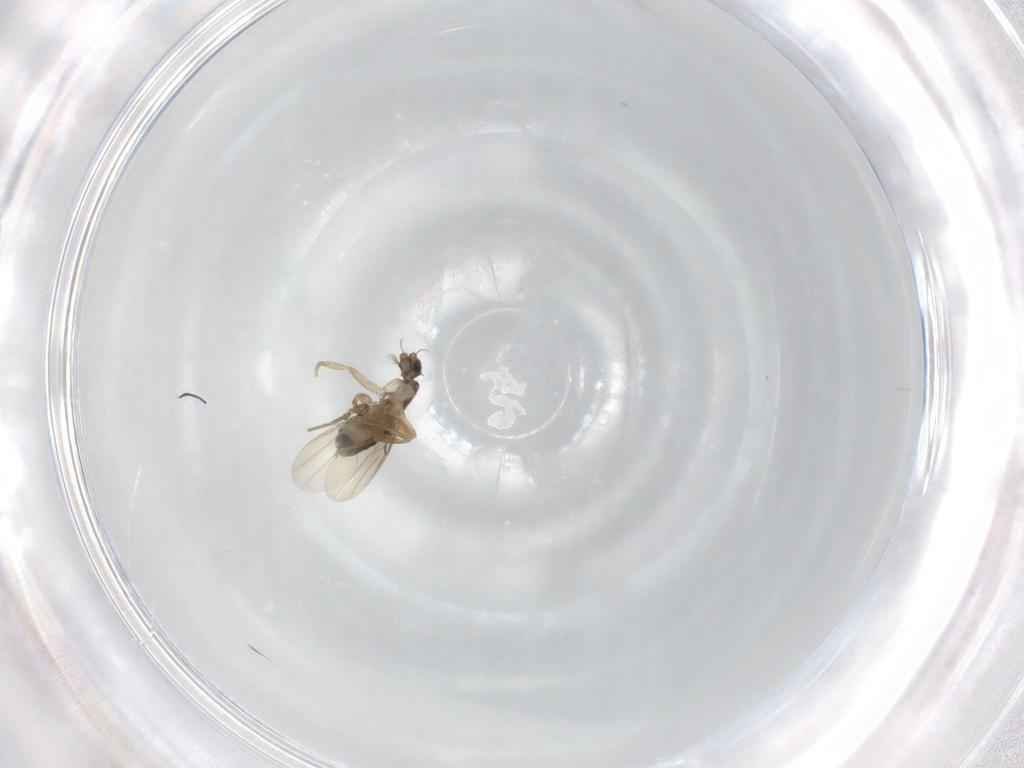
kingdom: Animalia
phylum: Arthropoda
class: Insecta
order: Diptera
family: Phoridae
